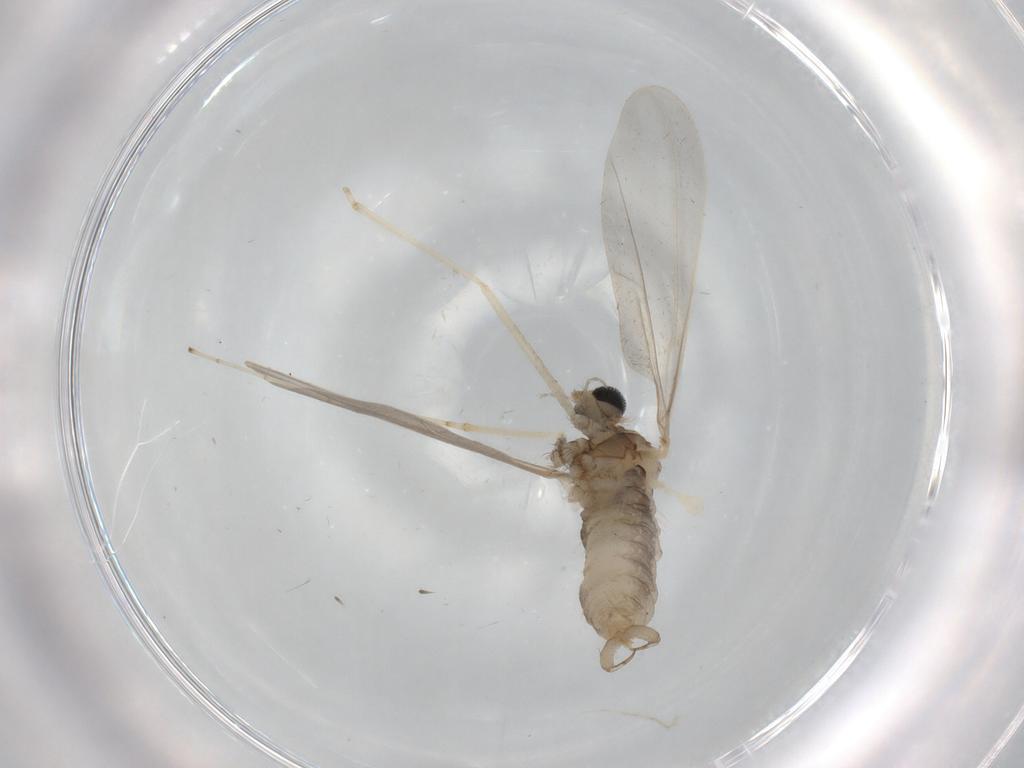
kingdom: Animalia
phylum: Arthropoda
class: Insecta
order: Diptera
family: Cecidomyiidae
